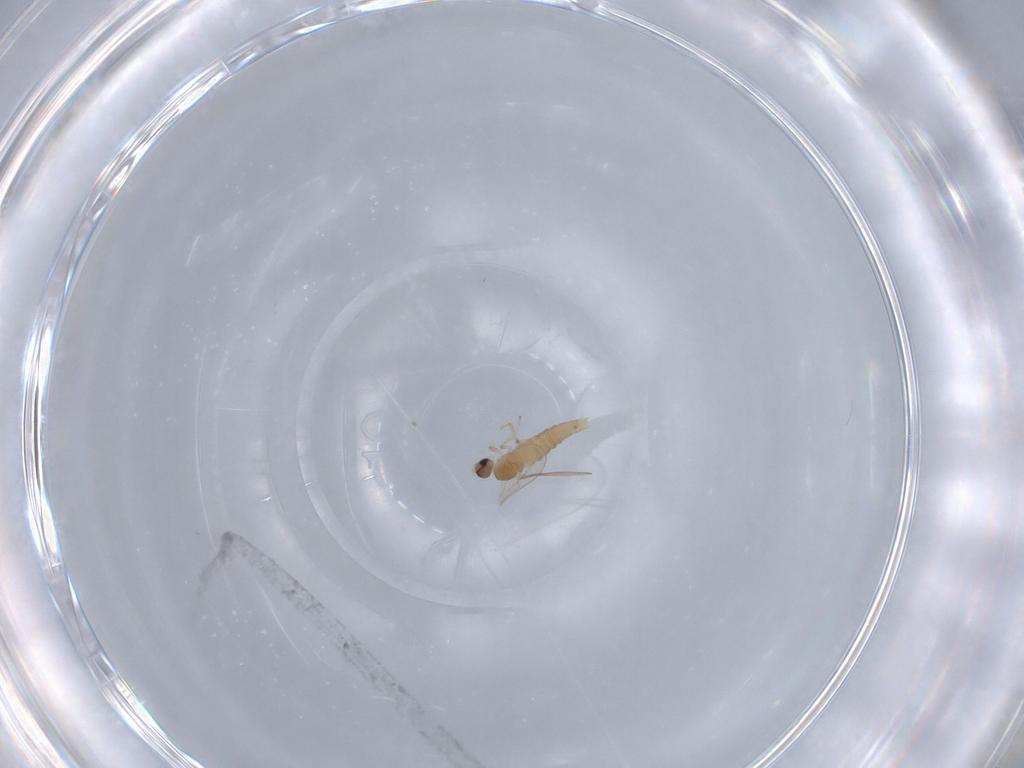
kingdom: Animalia
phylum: Arthropoda
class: Insecta
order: Diptera
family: Cecidomyiidae
